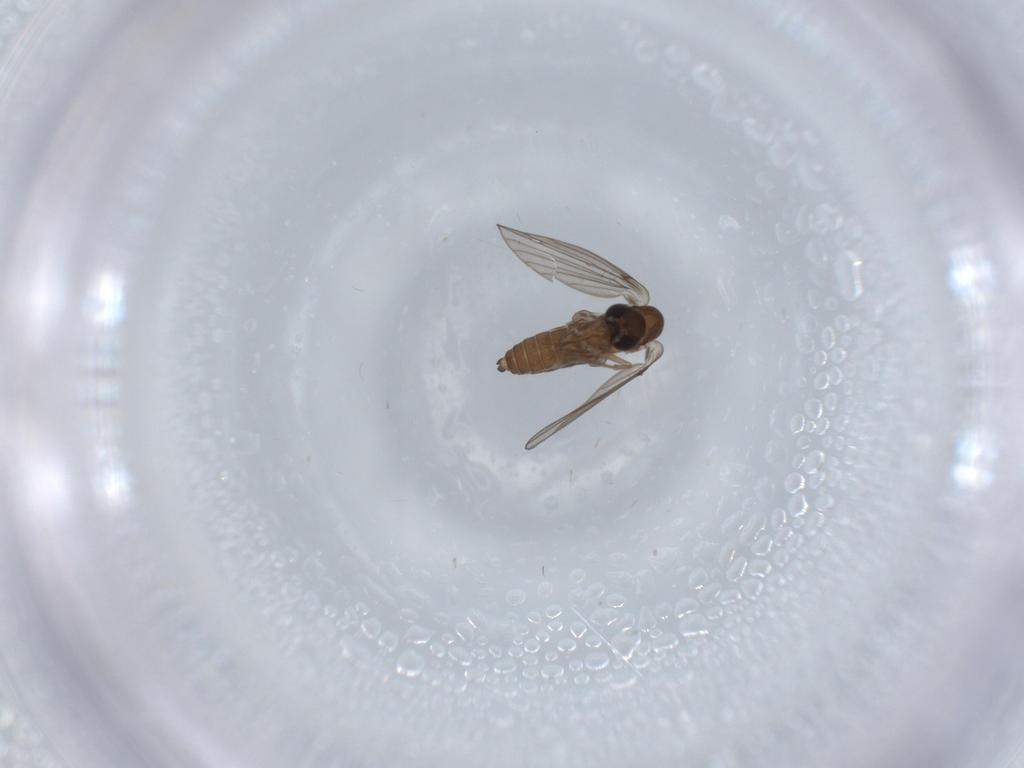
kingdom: Animalia
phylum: Arthropoda
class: Insecta
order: Diptera
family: Psychodidae
